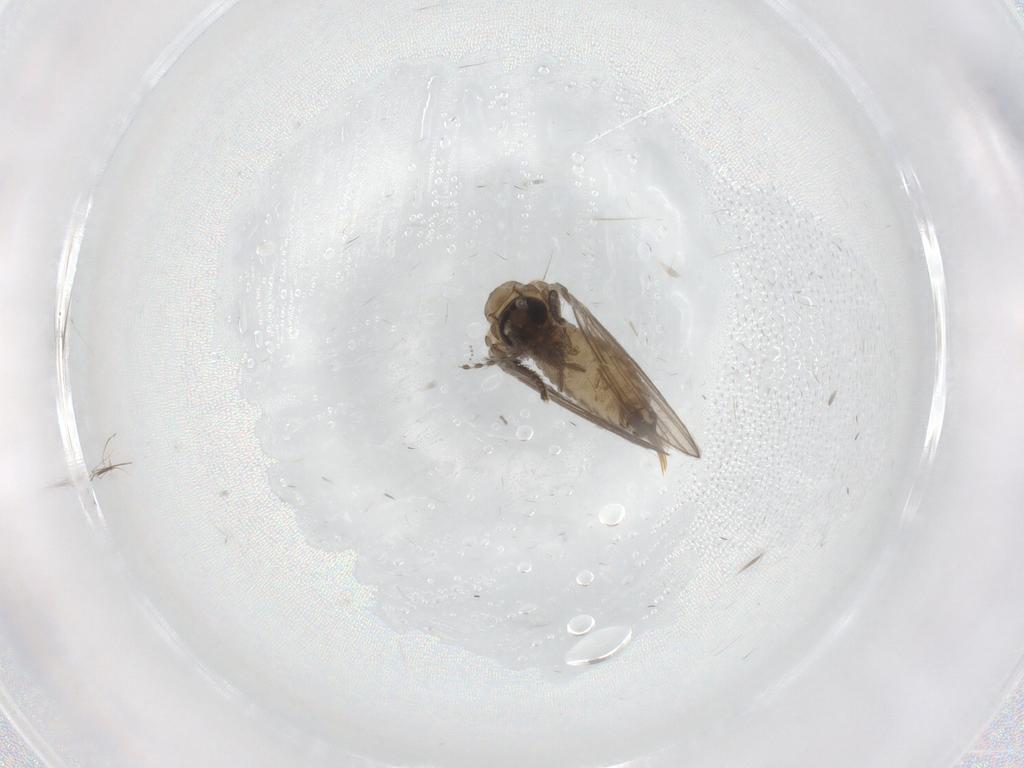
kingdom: Animalia
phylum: Arthropoda
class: Insecta
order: Diptera
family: Psychodidae
